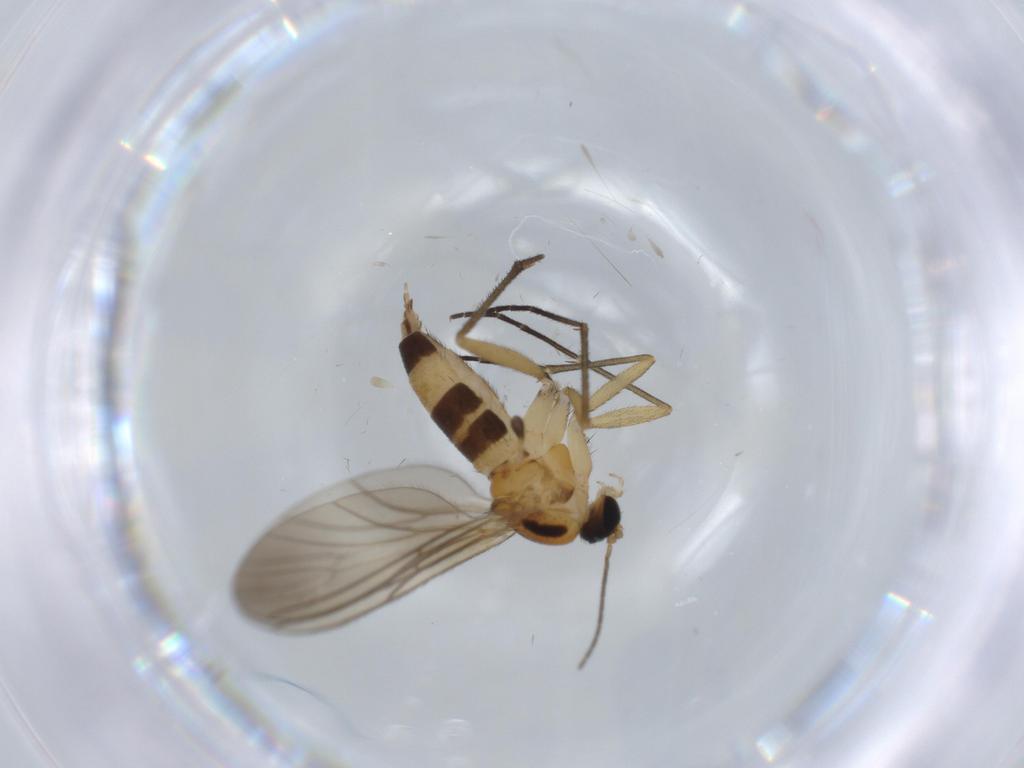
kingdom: Animalia
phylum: Arthropoda
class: Insecta
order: Diptera
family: Sciaridae
